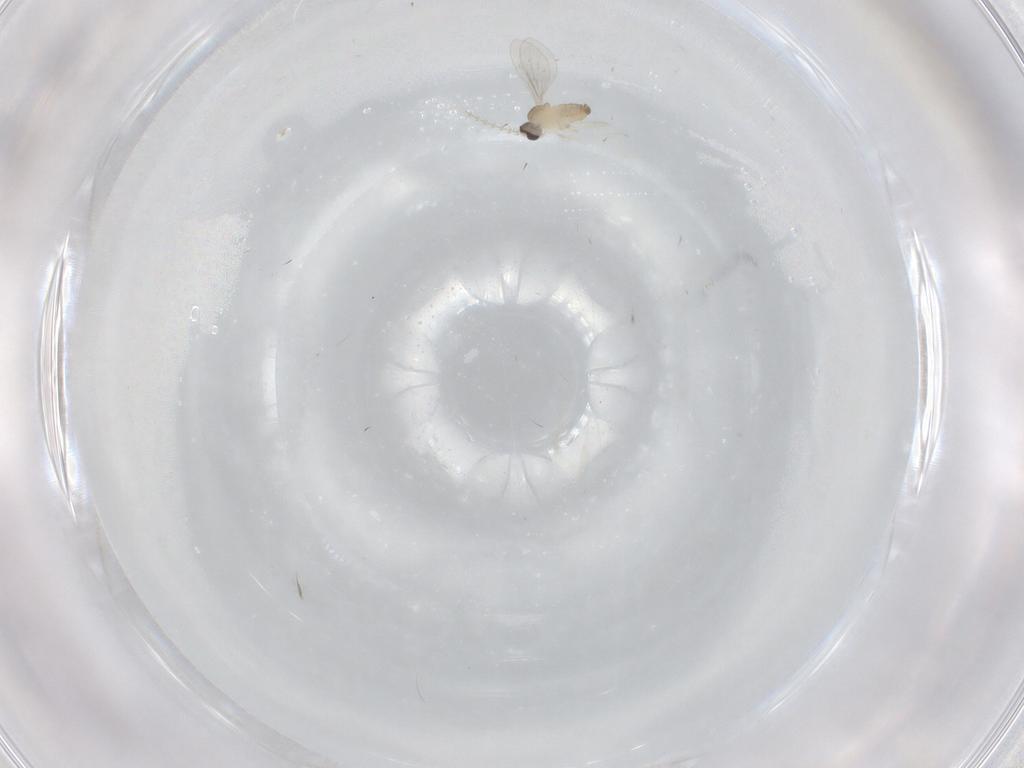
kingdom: Animalia
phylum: Arthropoda
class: Insecta
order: Diptera
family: Cecidomyiidae
